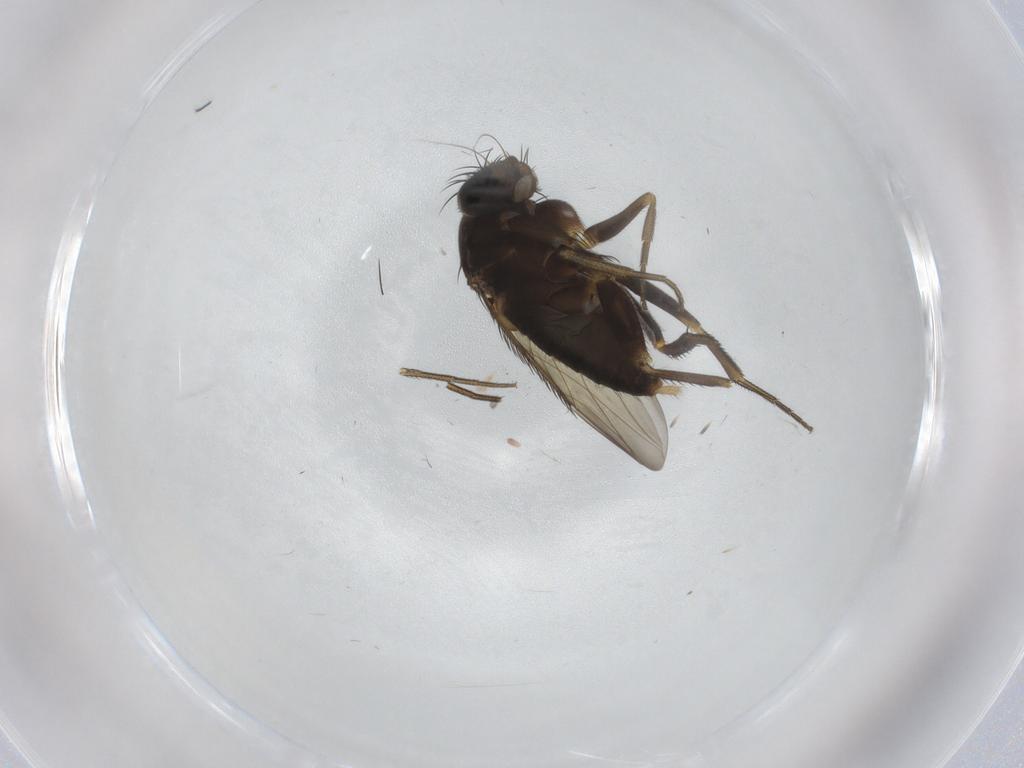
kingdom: Animalia
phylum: Arthropoda
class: Insecta
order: Diptera
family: Phoridae
